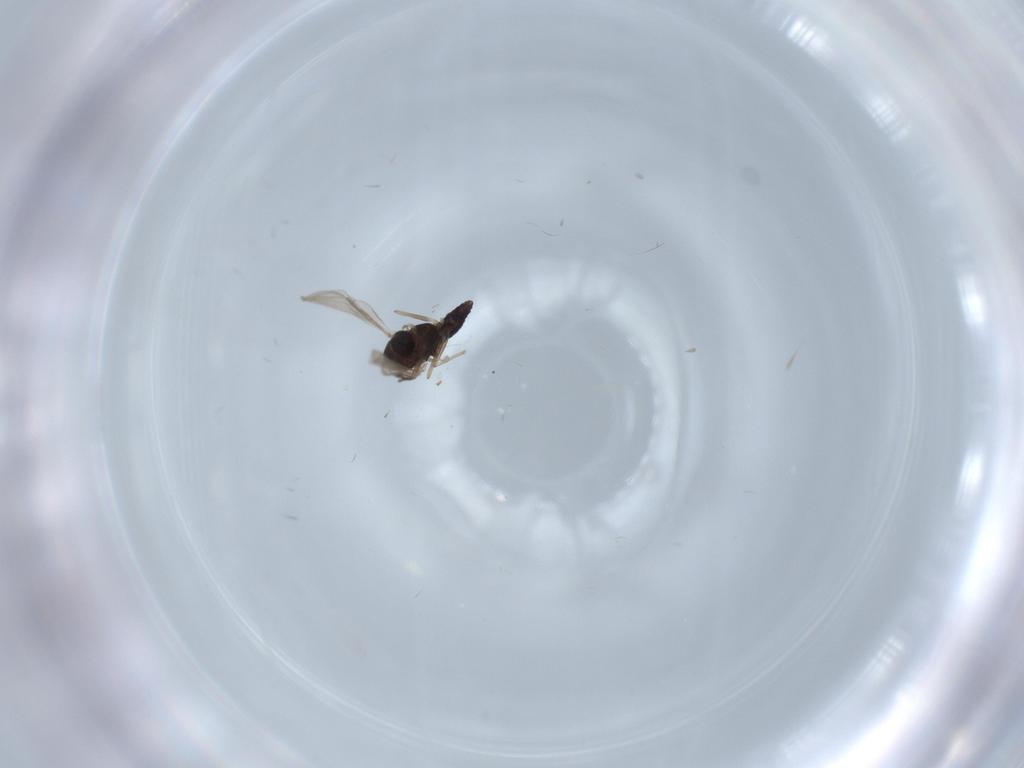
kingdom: Animalia
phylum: Arthropoda
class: Insecta
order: Diptera
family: Chironomidae
